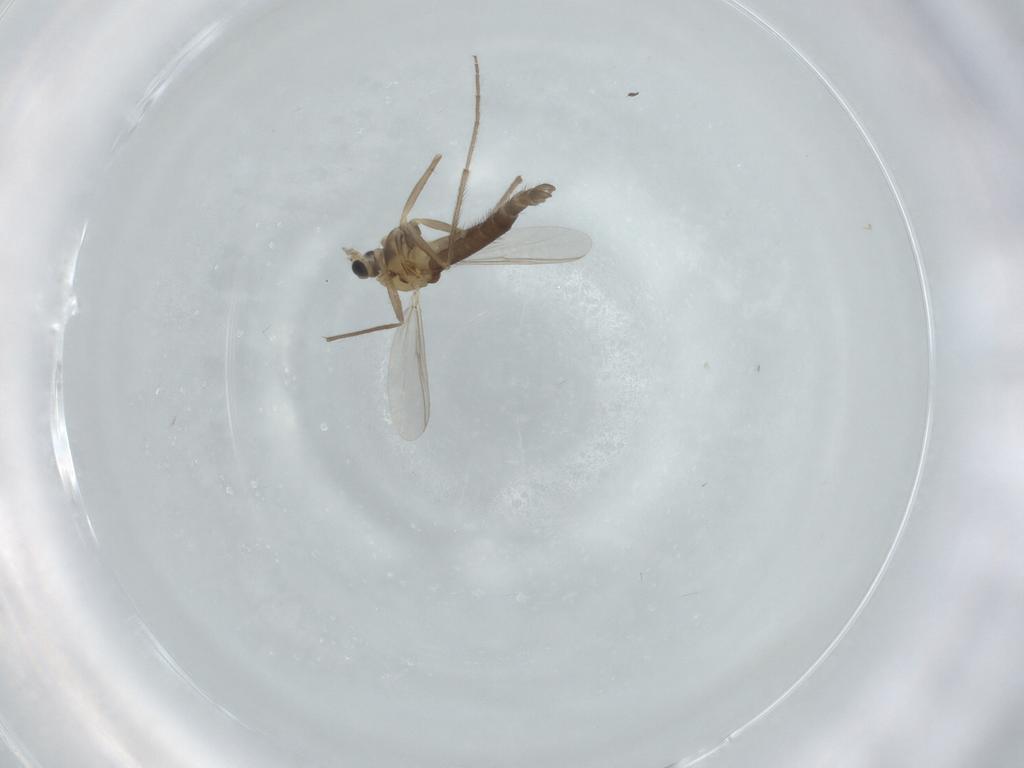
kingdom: Animalia
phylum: Arthropoda
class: Insecta
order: Diptera
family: Chironomidae
